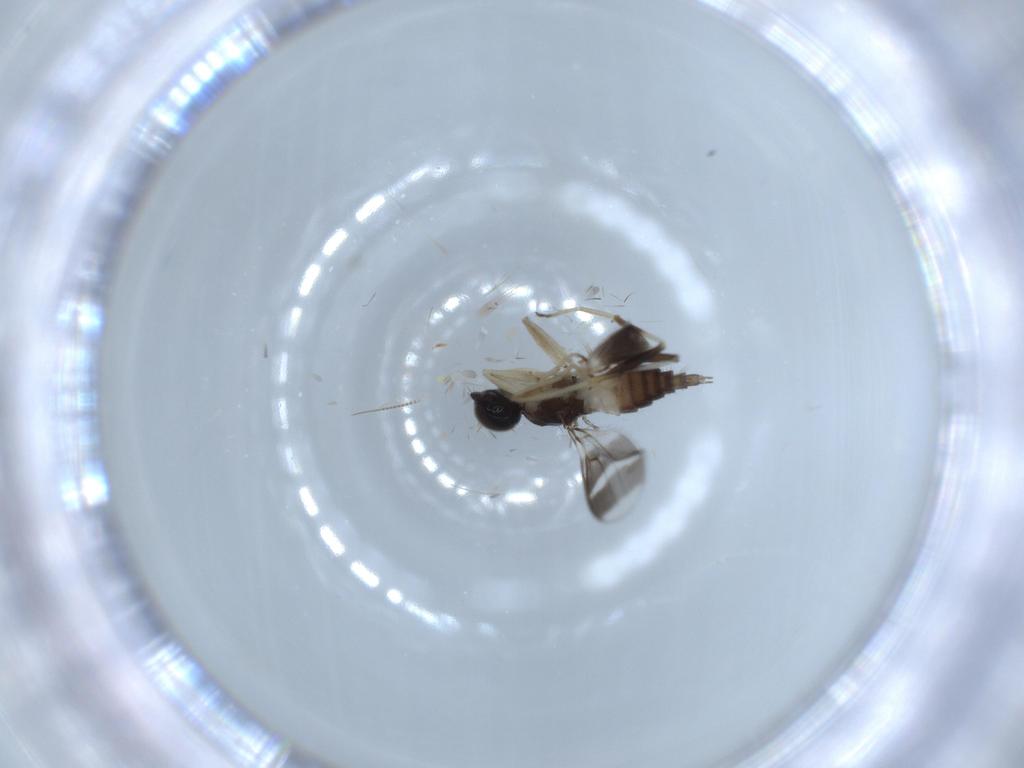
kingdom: Animalia
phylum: Arthropoda
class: Insecta
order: Diptera
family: Hybotidae
